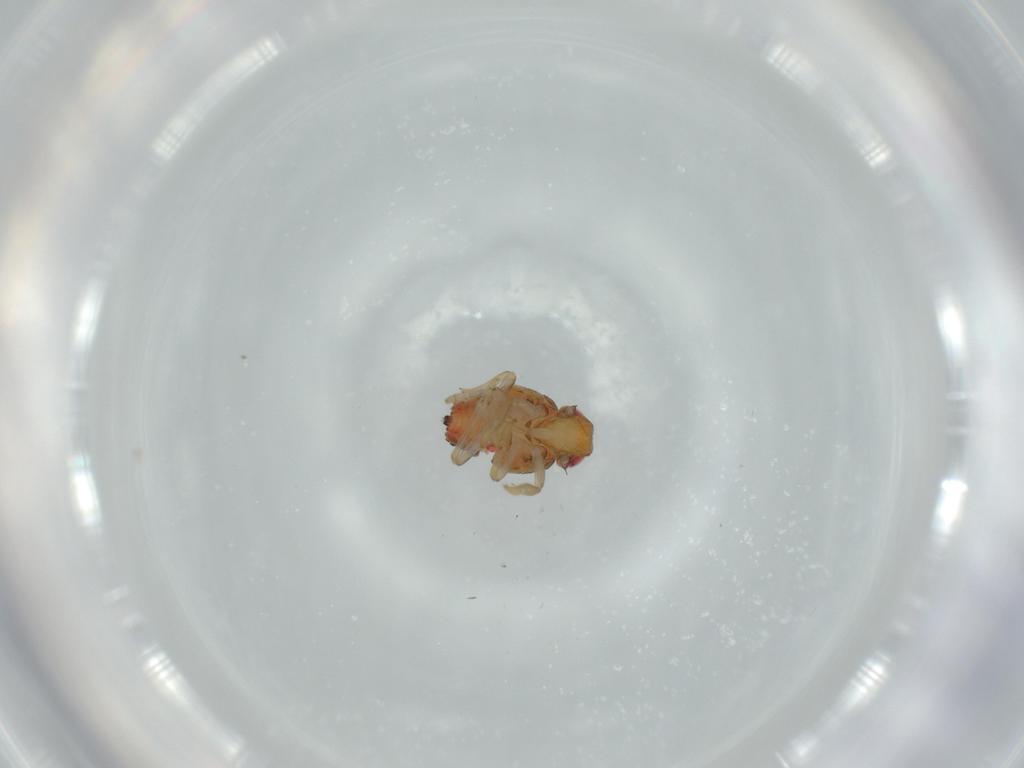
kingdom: Animalia
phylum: Arthropoda
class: Insecta
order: Hemiptera
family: Issidae
